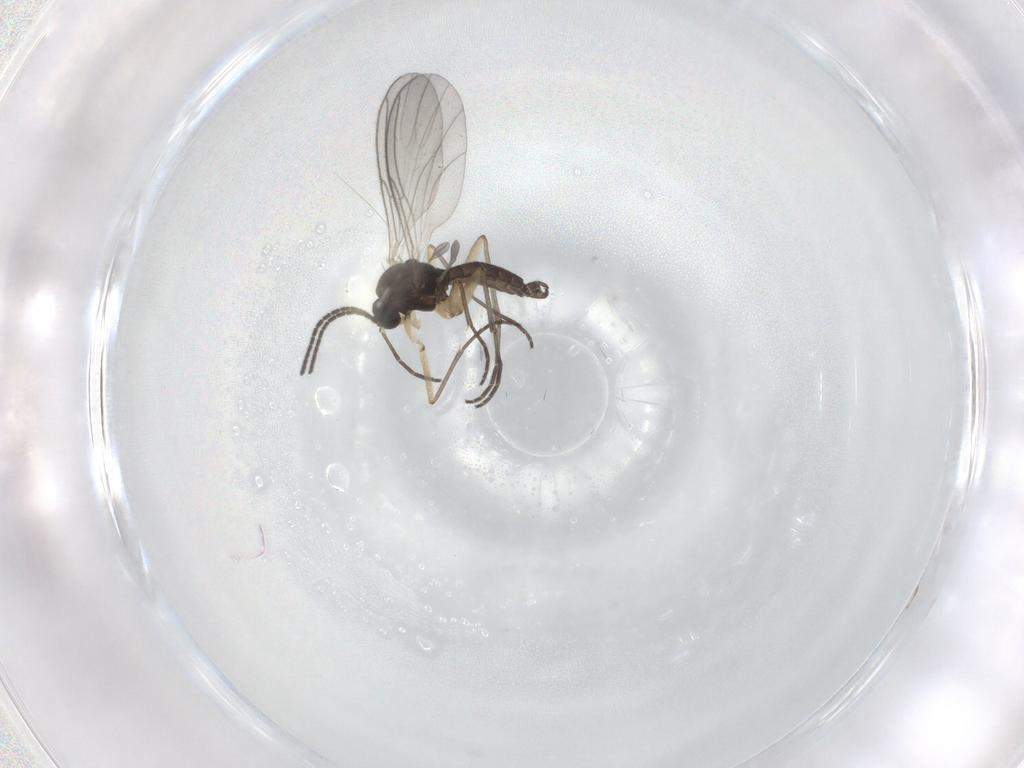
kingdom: Animalia
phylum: Arthropoda
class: Insecta
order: Diptera
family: Sciaridae
